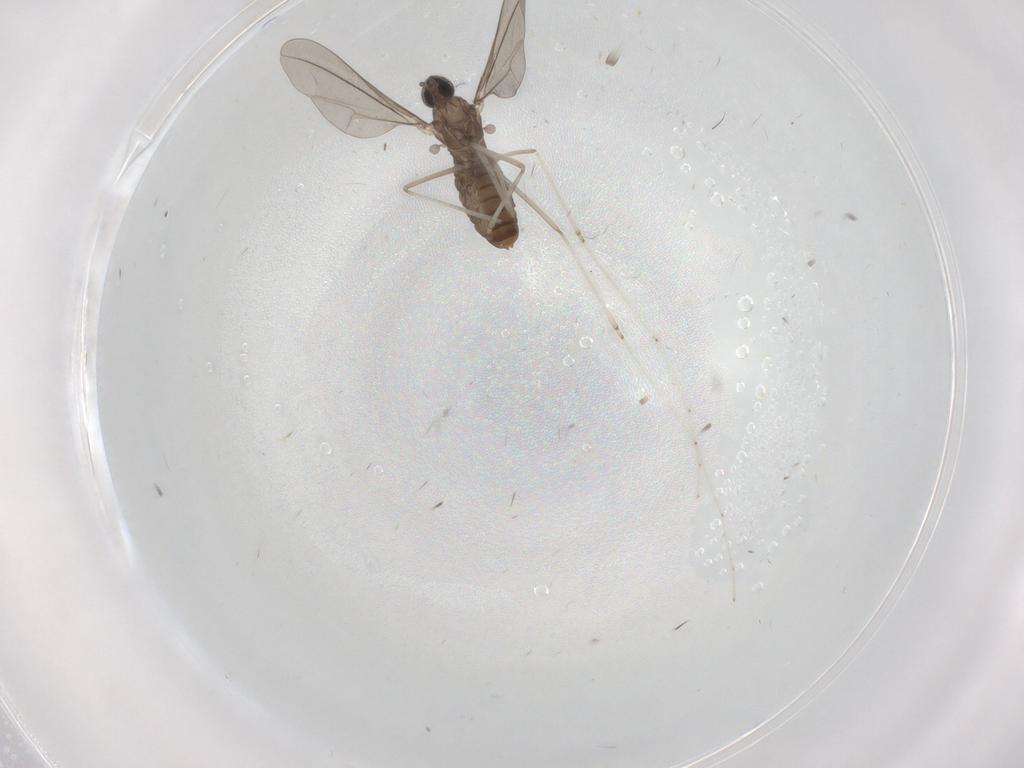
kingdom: Animalia
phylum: Arthropoda
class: Insecta
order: Diptera
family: Cecidomyiidae
